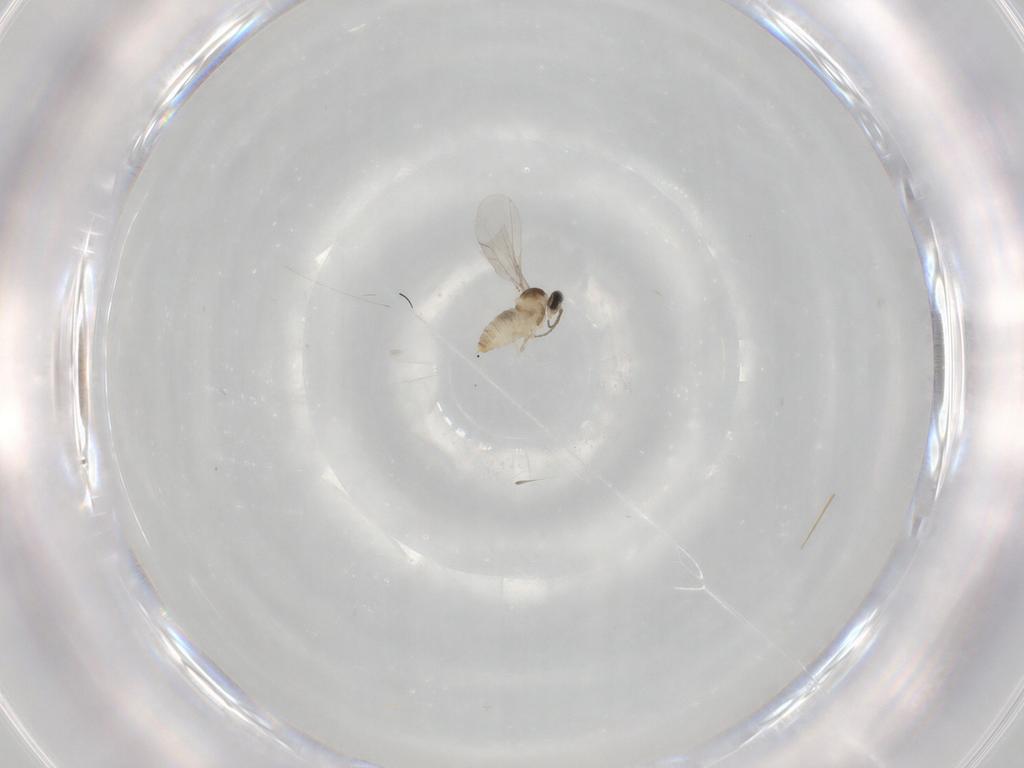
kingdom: Animalia
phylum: Arthropoda
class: Insecta
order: Diptera
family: Cecidomyiidae
